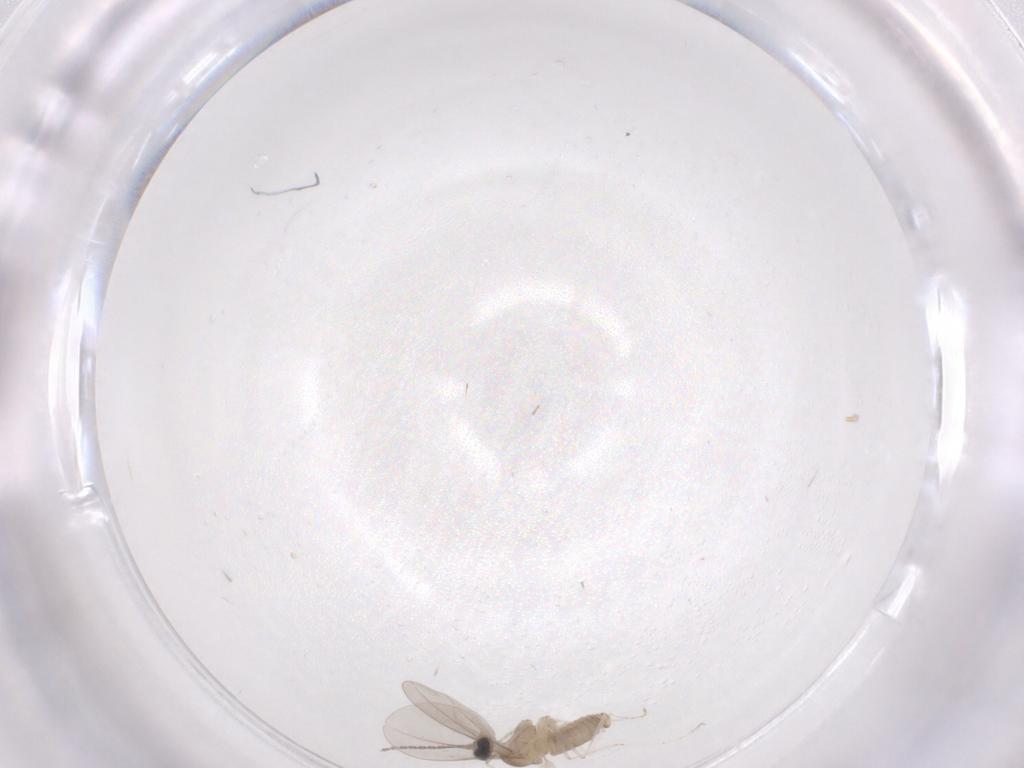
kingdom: Animalia
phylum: Arthropoda
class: Insecta
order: Diptera
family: Cecidomyiidae
